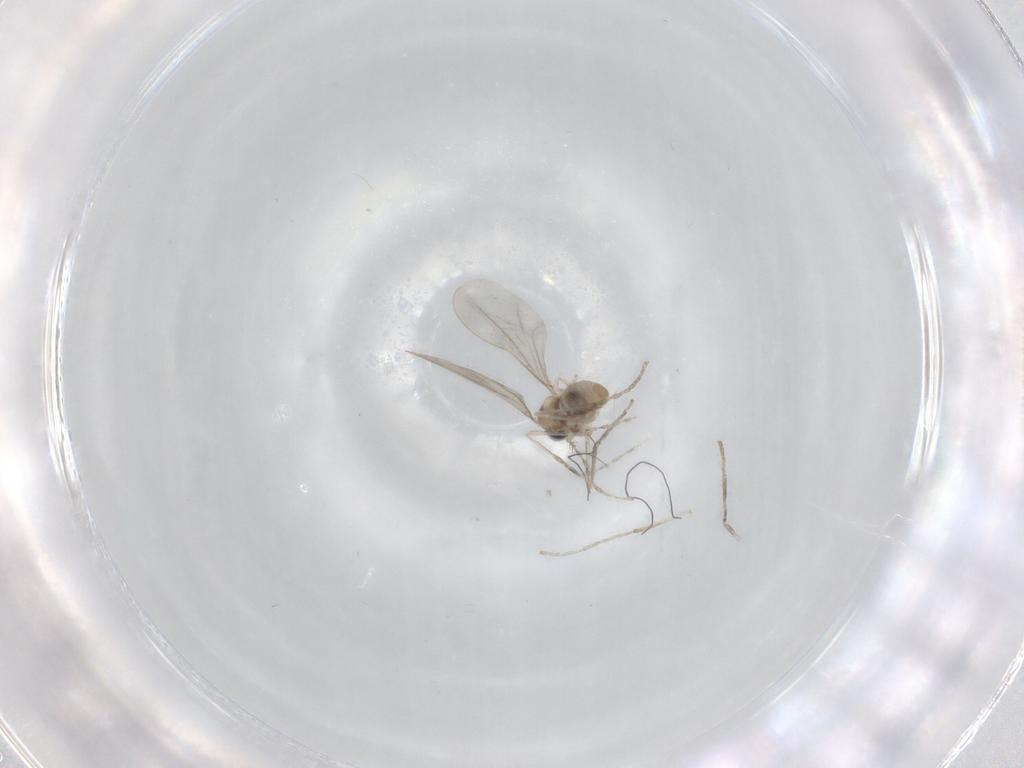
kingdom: Animalia
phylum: Arthropoda
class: Insecta
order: Diptera
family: Cecidomyiidae
